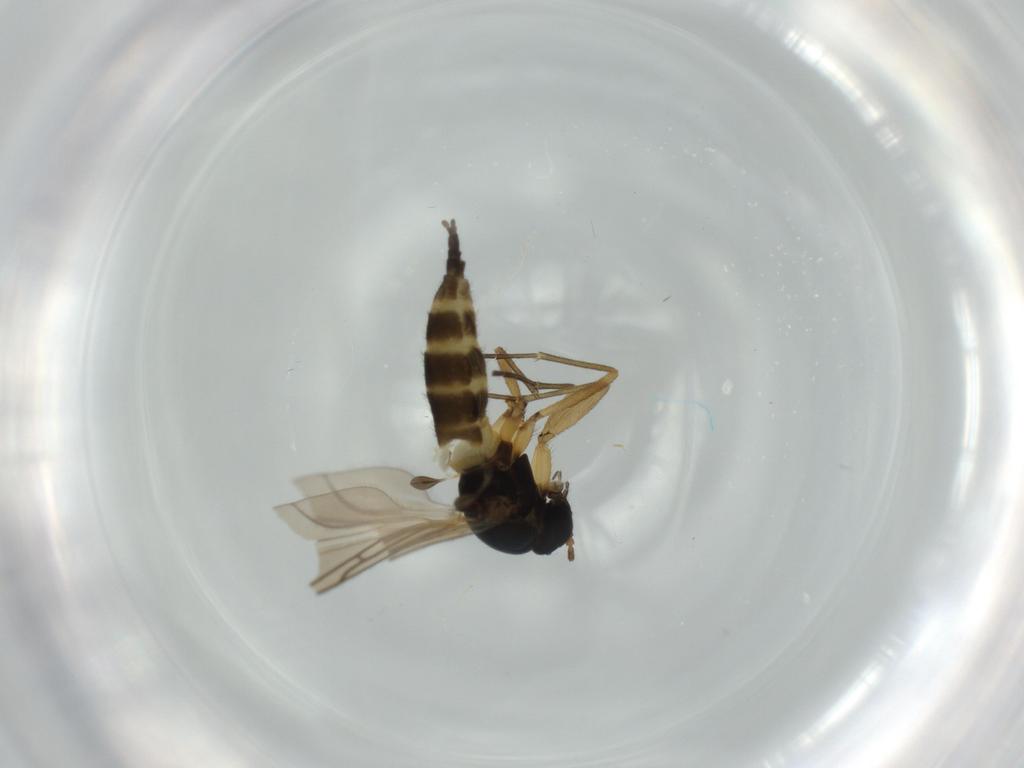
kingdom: Animalia
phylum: Arthropoda
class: Insecta
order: Diptera
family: Sciaridae
